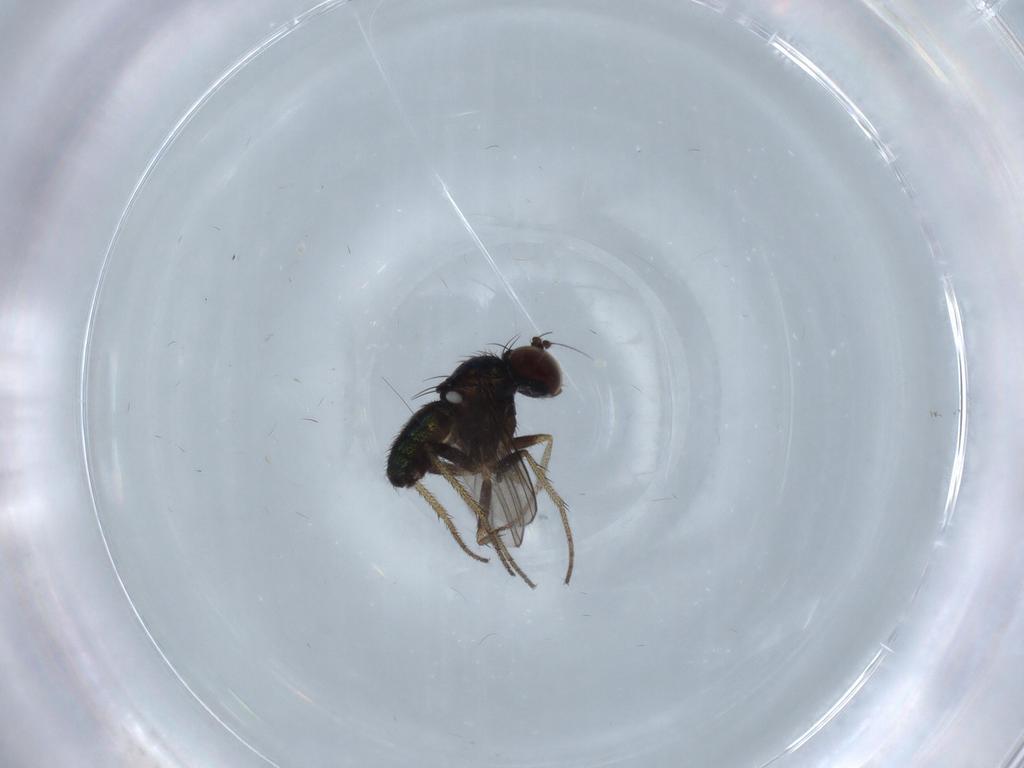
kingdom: Animalia
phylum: Arthropoda
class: Insecta
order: Diptera
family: Dolichopodidae
